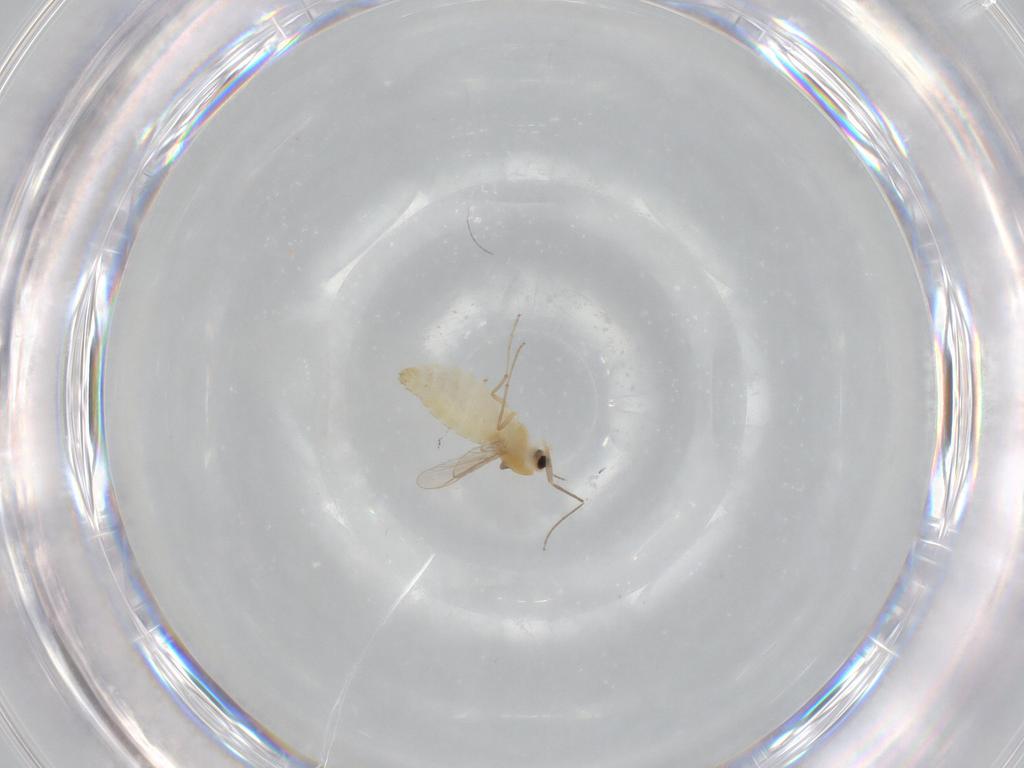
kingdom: Animalia
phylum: Arthropoda
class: Insecta
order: Diptera
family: Chironomidae
